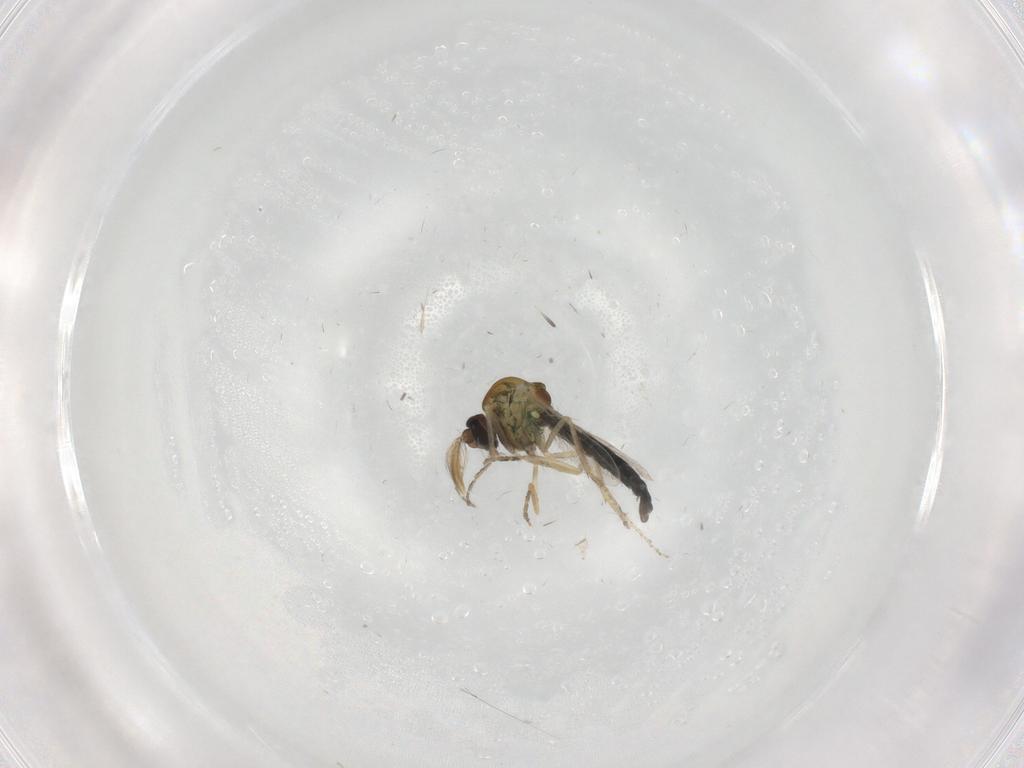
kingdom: Animalia
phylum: Arthropoda
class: Insecta
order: Diptera
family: Ceratopogonidae
